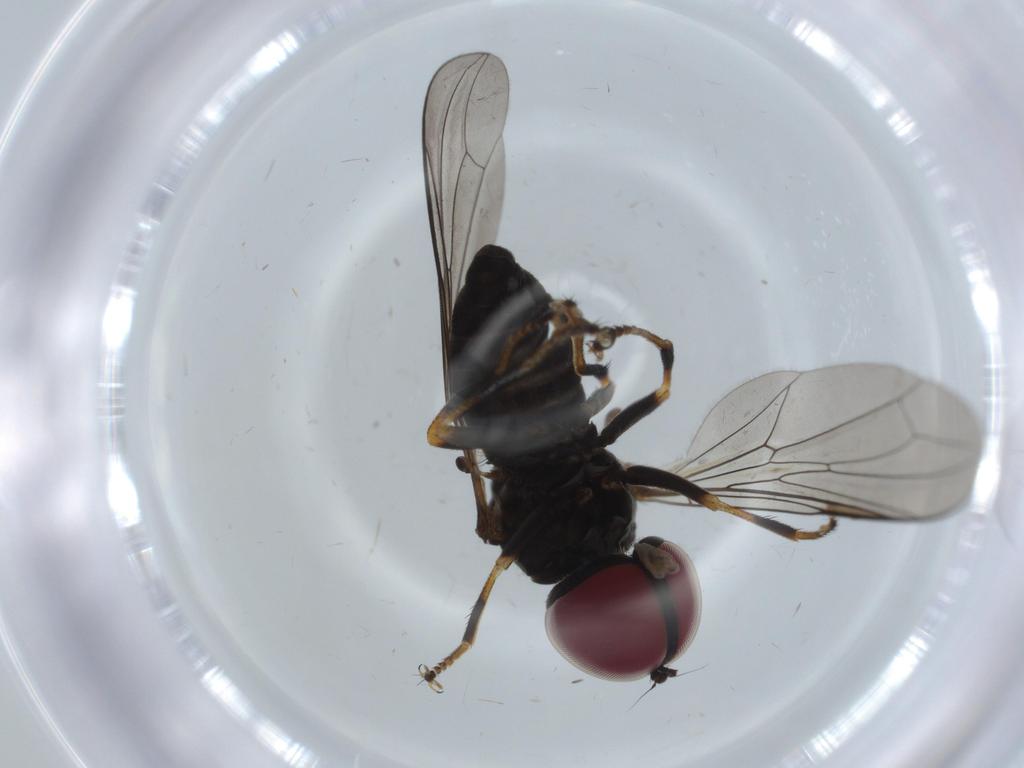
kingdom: Animalia
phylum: Arthropoda
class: Insecta
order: Diptera
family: Pipunculidae
